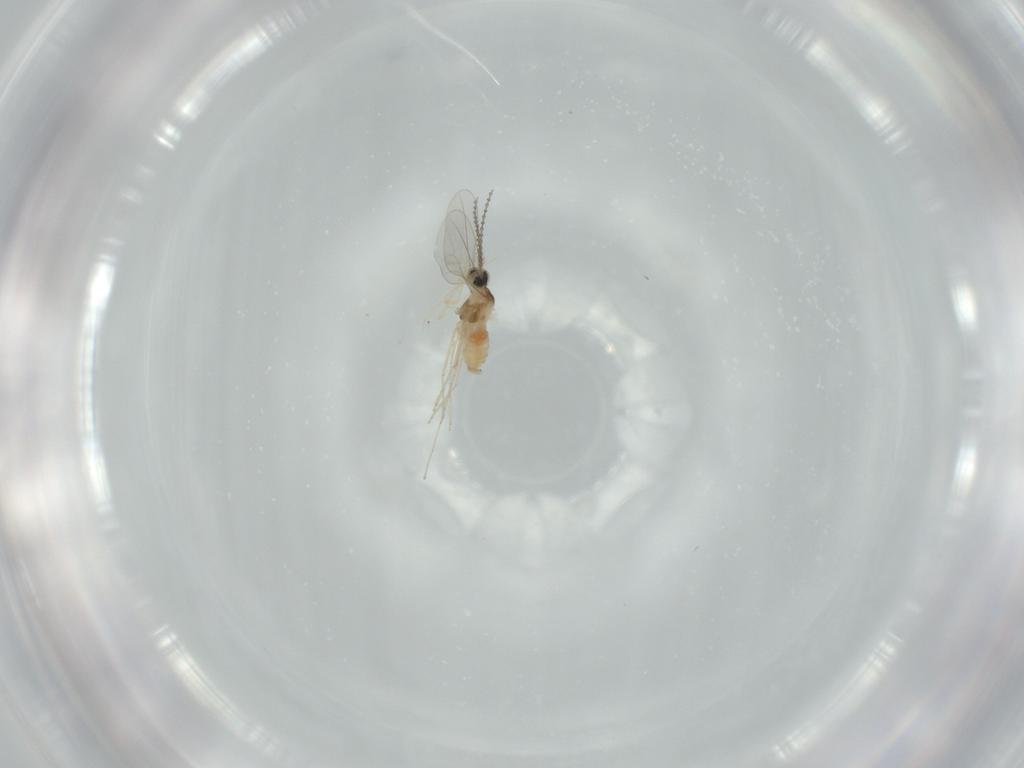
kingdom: Animalia
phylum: Arthropoda
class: Insecta
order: Diptera
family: Cecidomyiidae
